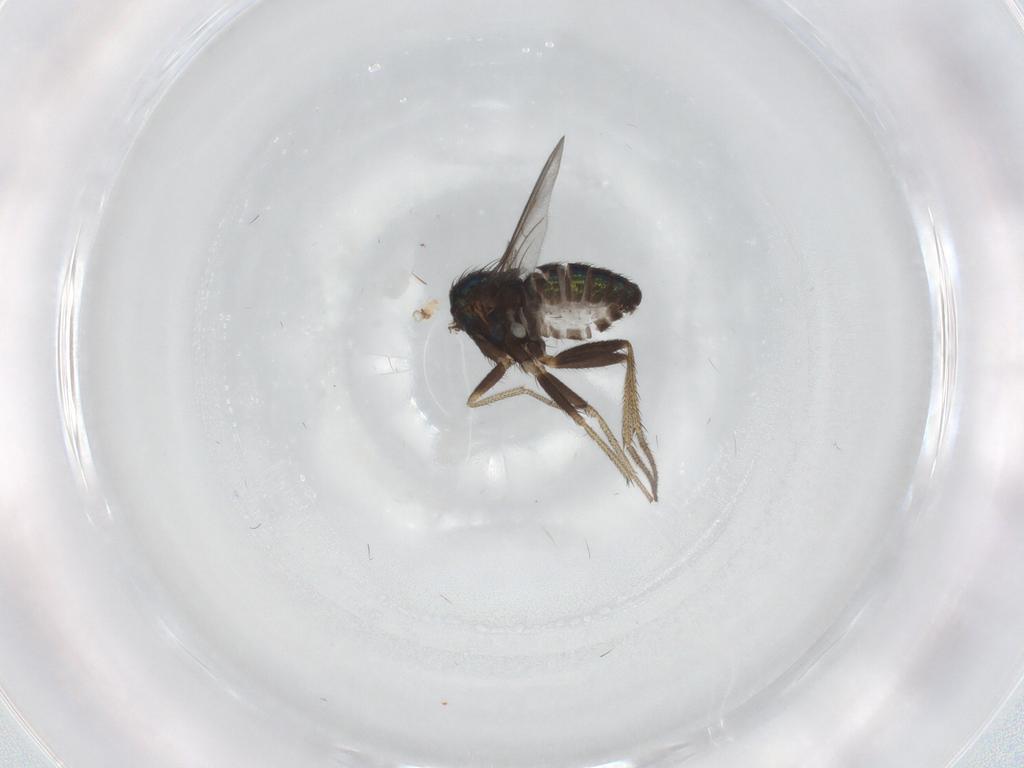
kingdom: Animalia
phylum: Arthropoda
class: Insecta
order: Diptera
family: Dolichopodidae
